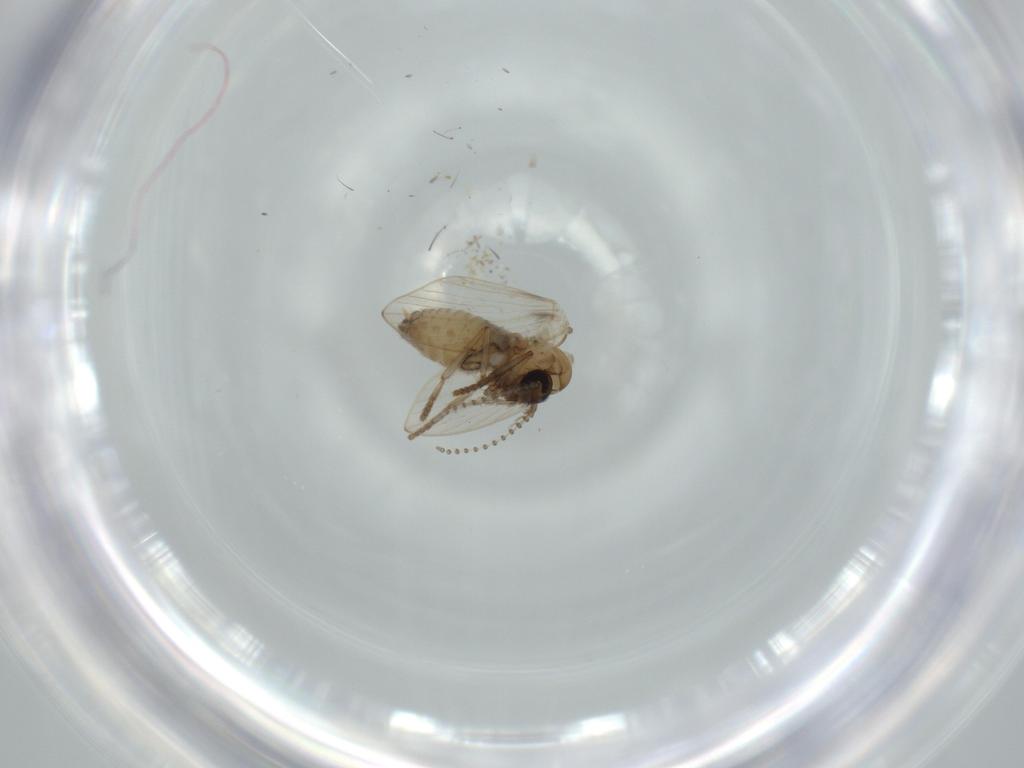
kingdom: Animalia
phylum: Arthropoda
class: Insecta
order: Diptera
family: Psychodidae
